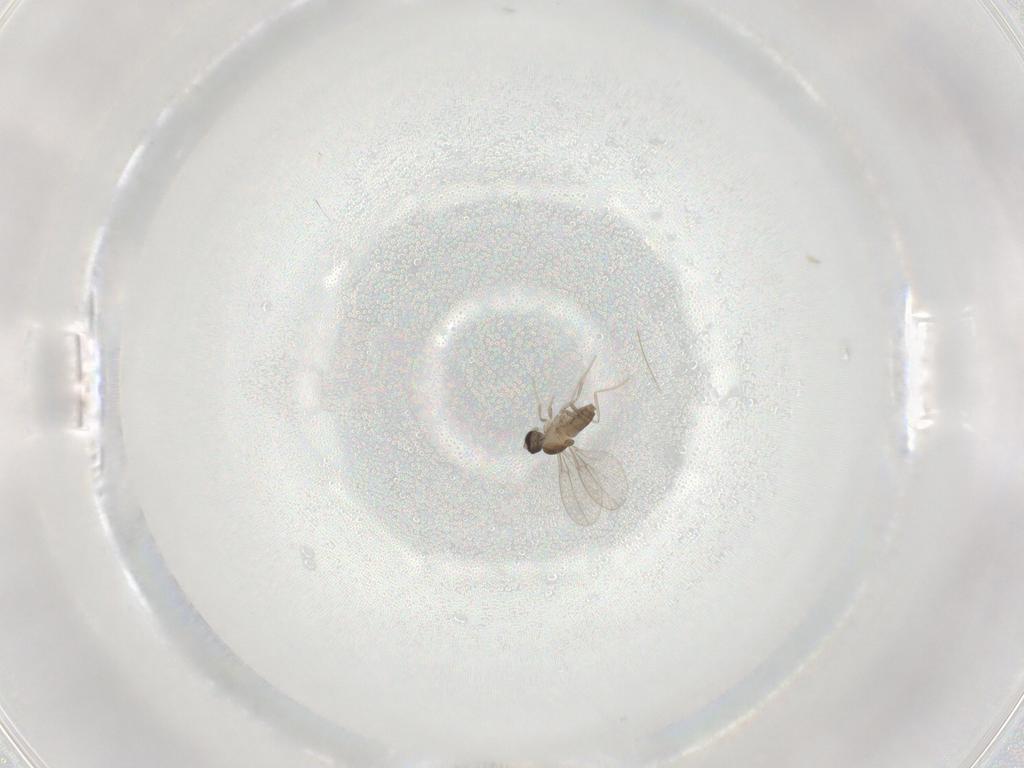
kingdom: Animalia
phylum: Arthropoda
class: Insecta
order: Diptera
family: Cecidomyiidae
